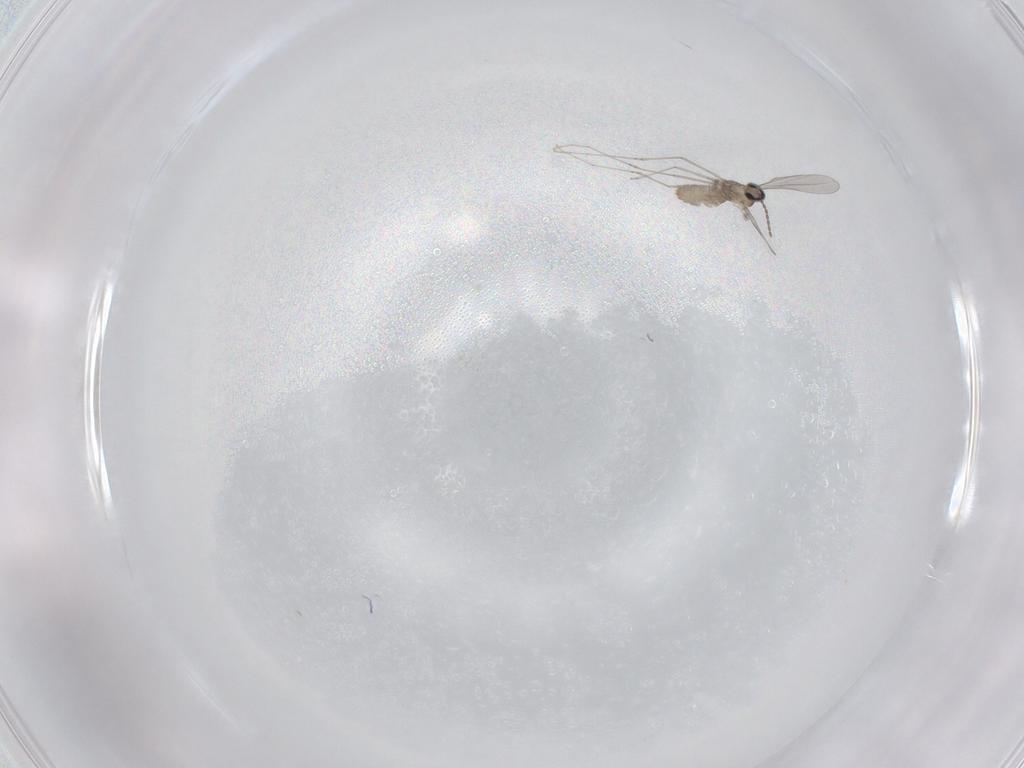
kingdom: Animalia
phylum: Arthropoda
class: Insecta
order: Diptera
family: Cecidomyiidae
